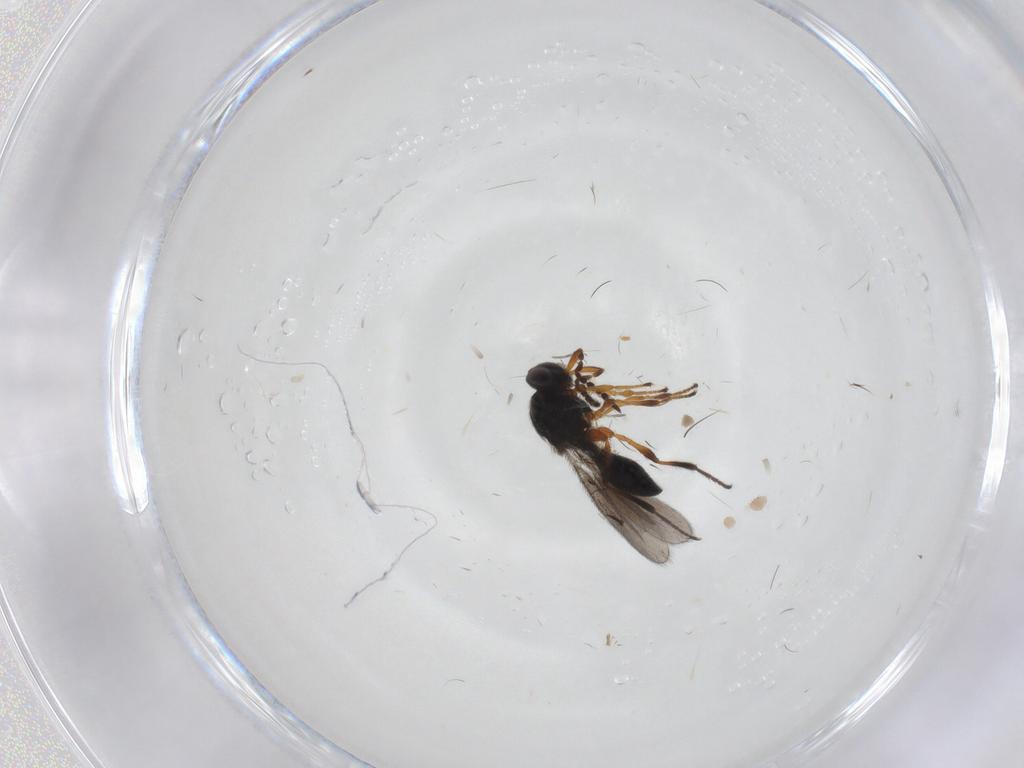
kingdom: Animalia
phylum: Arthropoda
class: Insecta
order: Hymenoptera
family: Platygastridae
